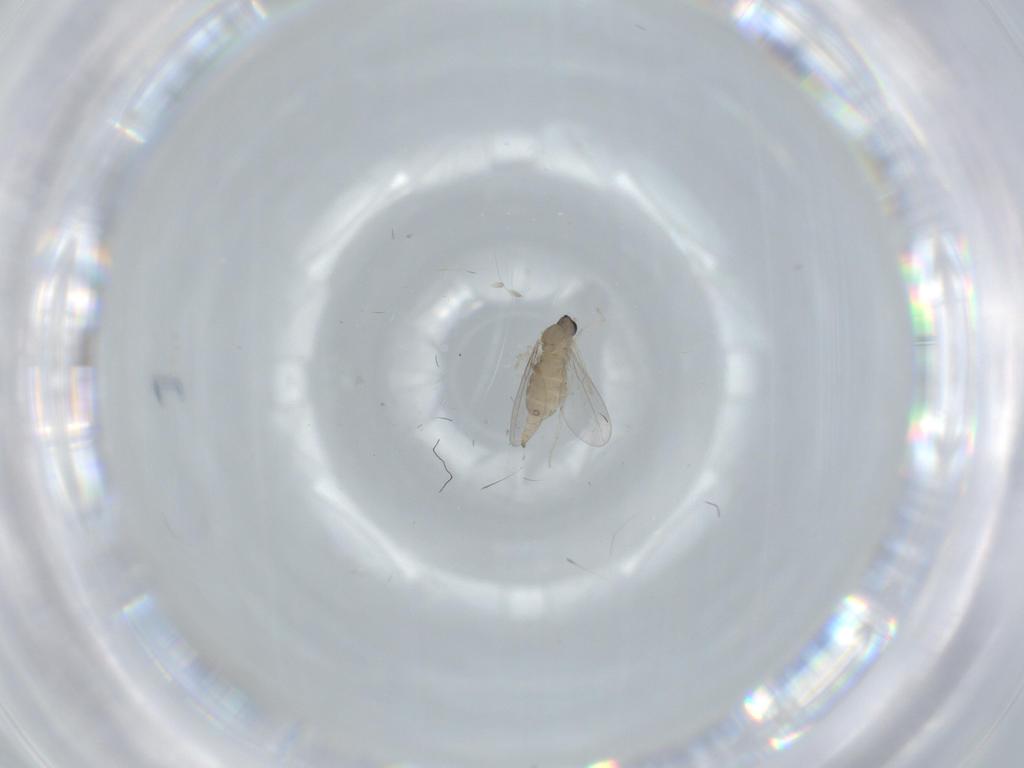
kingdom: Animalia
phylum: Arthropoda
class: Insecta
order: Diptera
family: Cecidomyiidae
